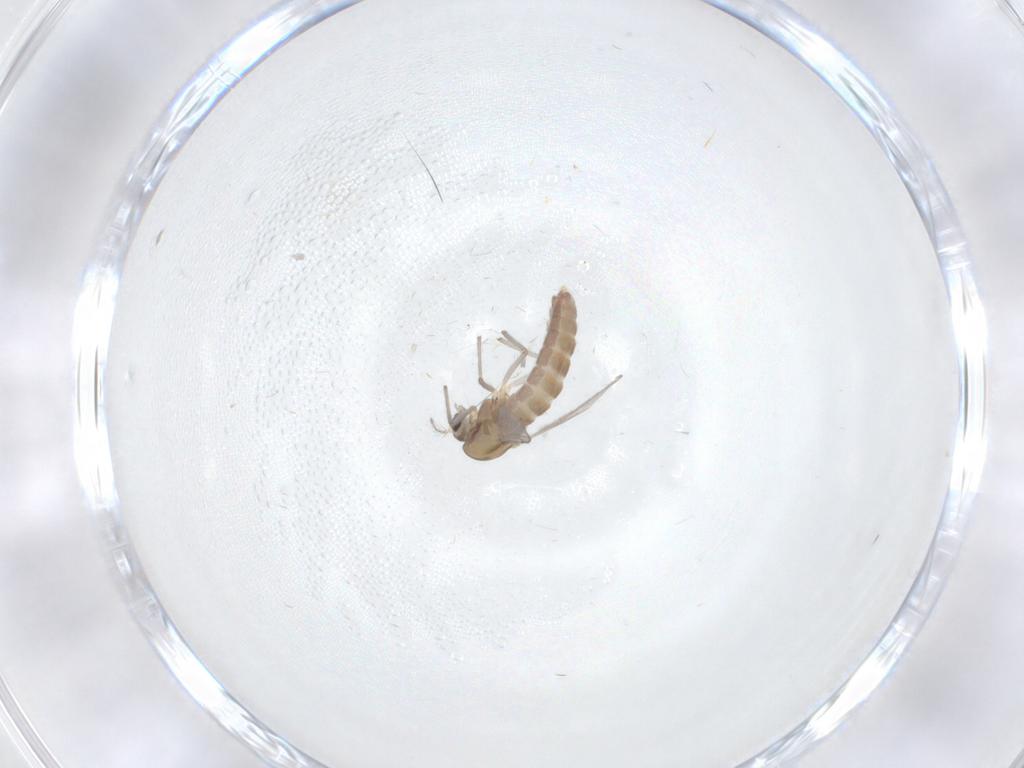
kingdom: Animalia
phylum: Arthropoda
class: Insecta
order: Diptera
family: Chironomidae
